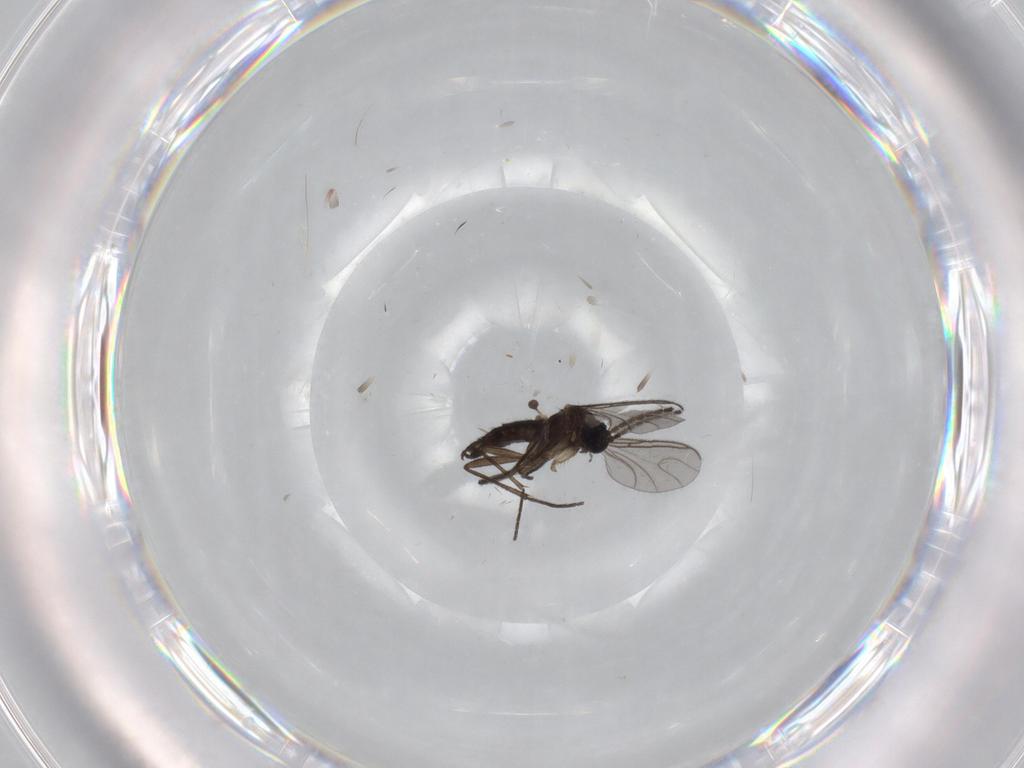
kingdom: Animalia
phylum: Arthropoda
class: Insecta
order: Diptera
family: Sciaridae
